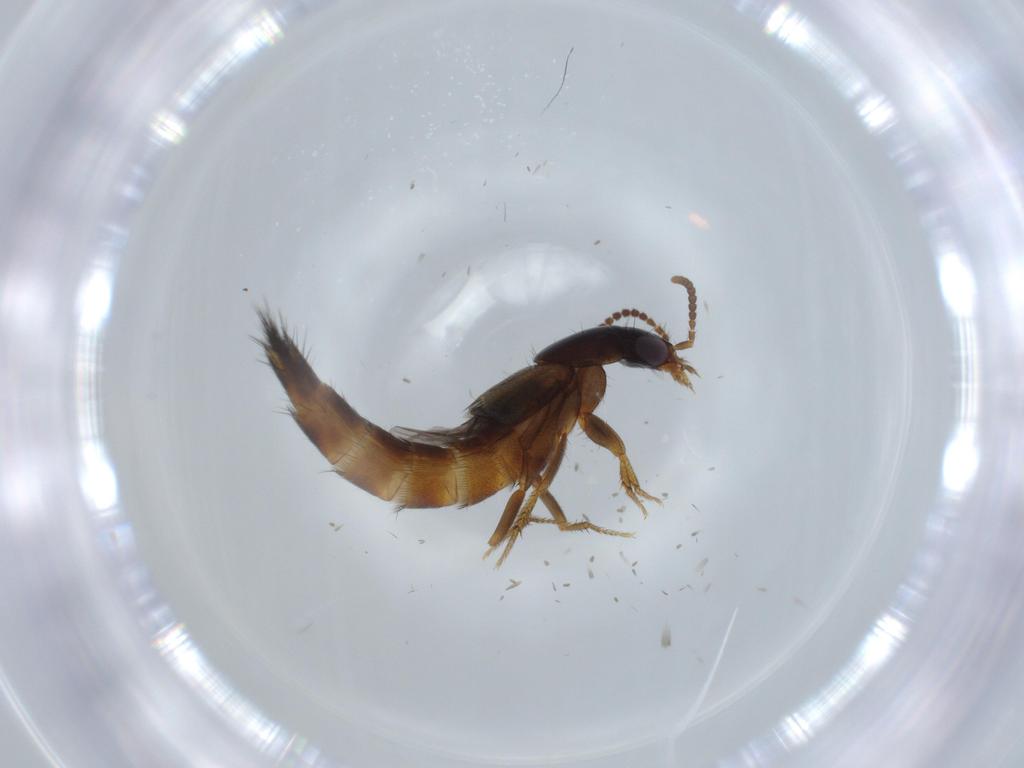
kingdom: Animalia
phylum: Arthropoda
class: Insecta
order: Coleoptera
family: Staphylinidae
